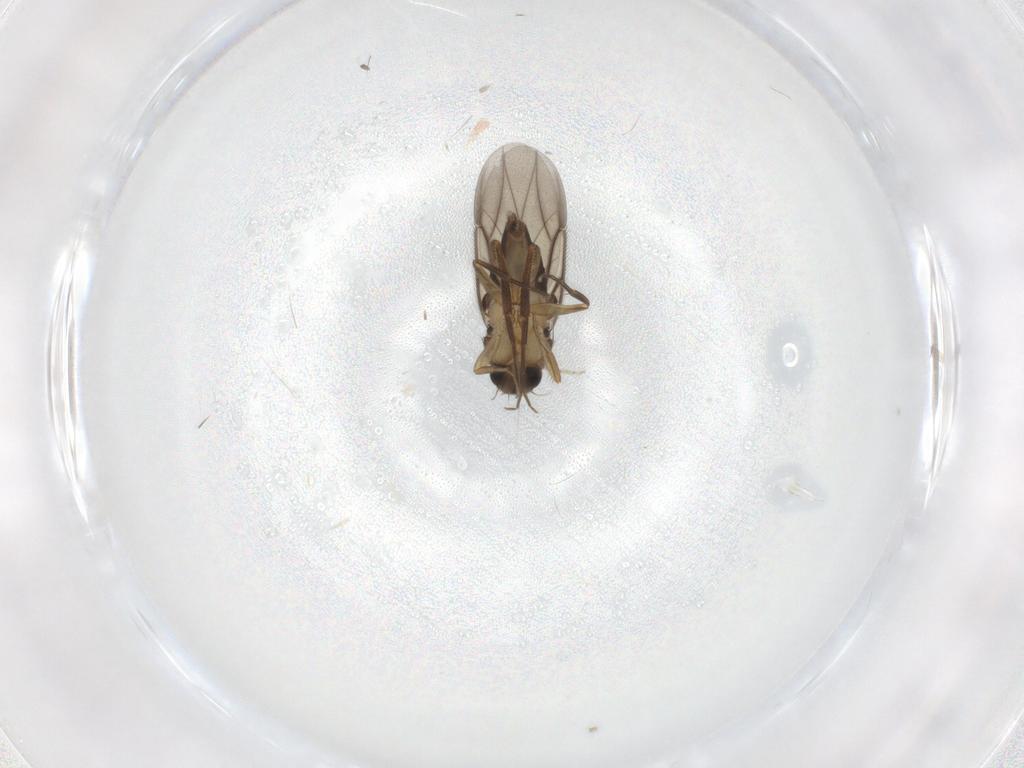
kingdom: Animalia
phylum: Arthropoda
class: Insecta
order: Diptera
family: Phoridae
